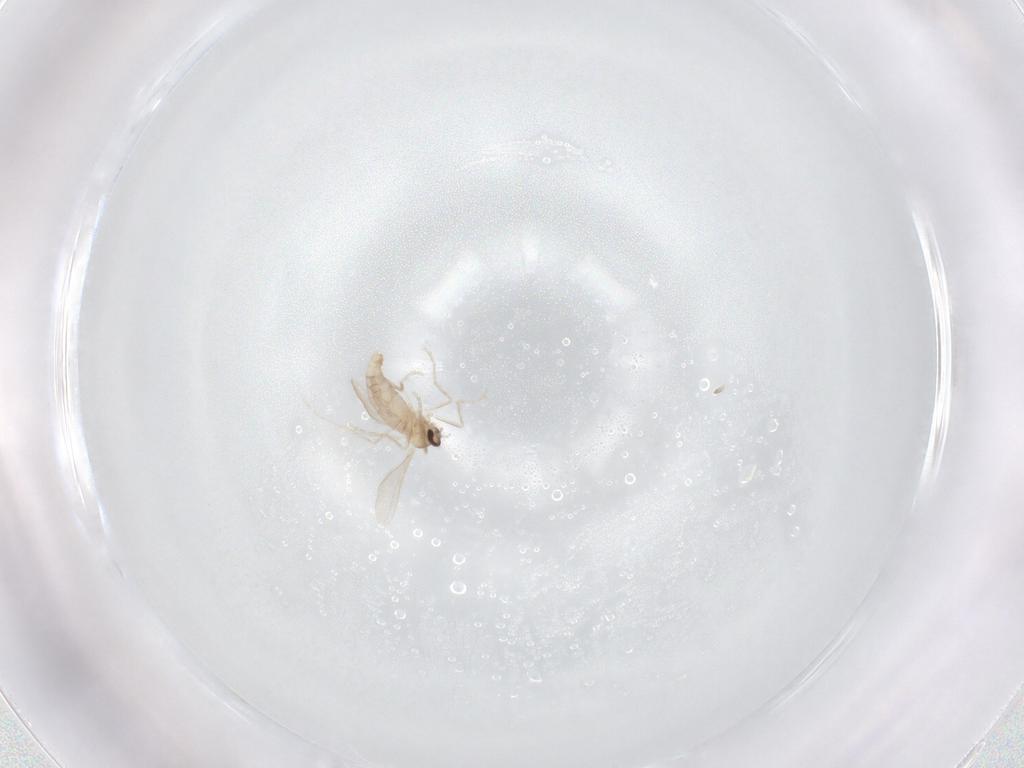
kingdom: Animalia
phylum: Arthropoda
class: Insecta
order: Diptera
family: Cecidomyiidae
